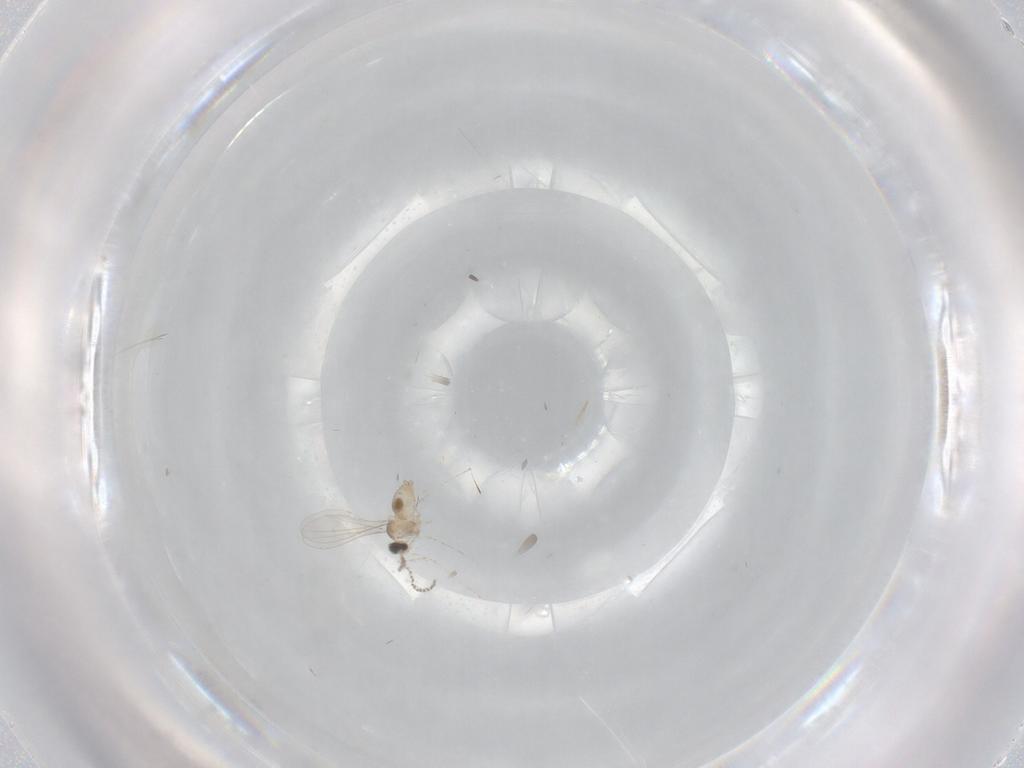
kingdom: Animalia
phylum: Arthropoda
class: Insecta
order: Diptera
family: Cecidomyiidae
